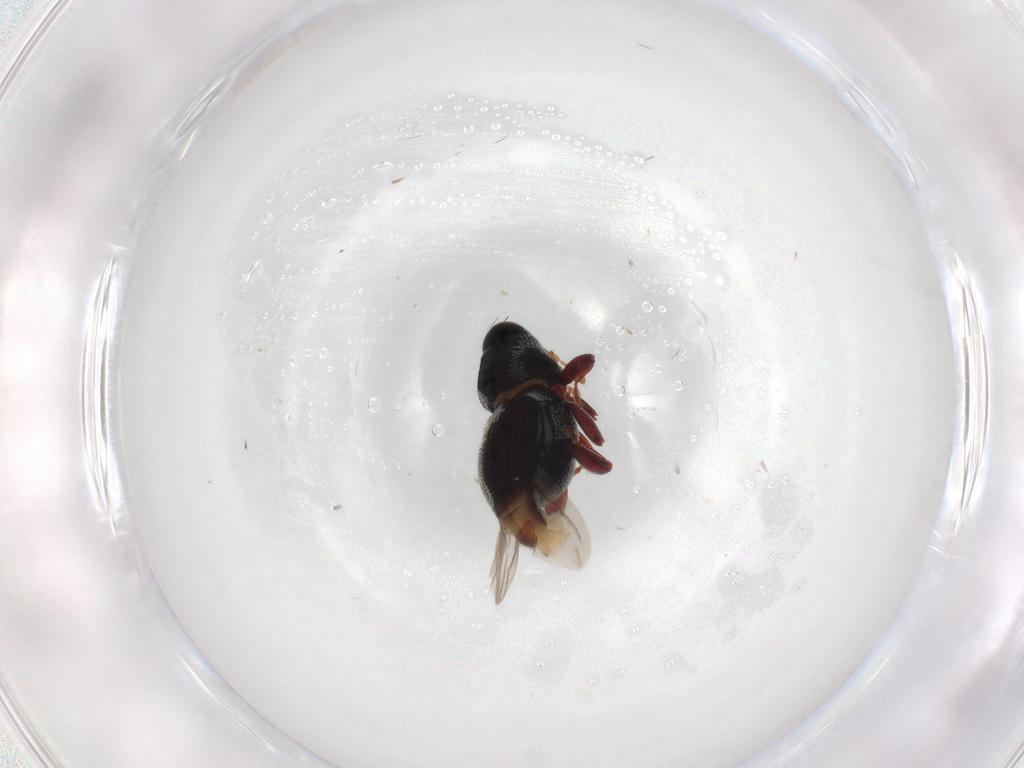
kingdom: Animalia
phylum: Arthropoda
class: Insecta
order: Coleoptera
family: Curculionidae
